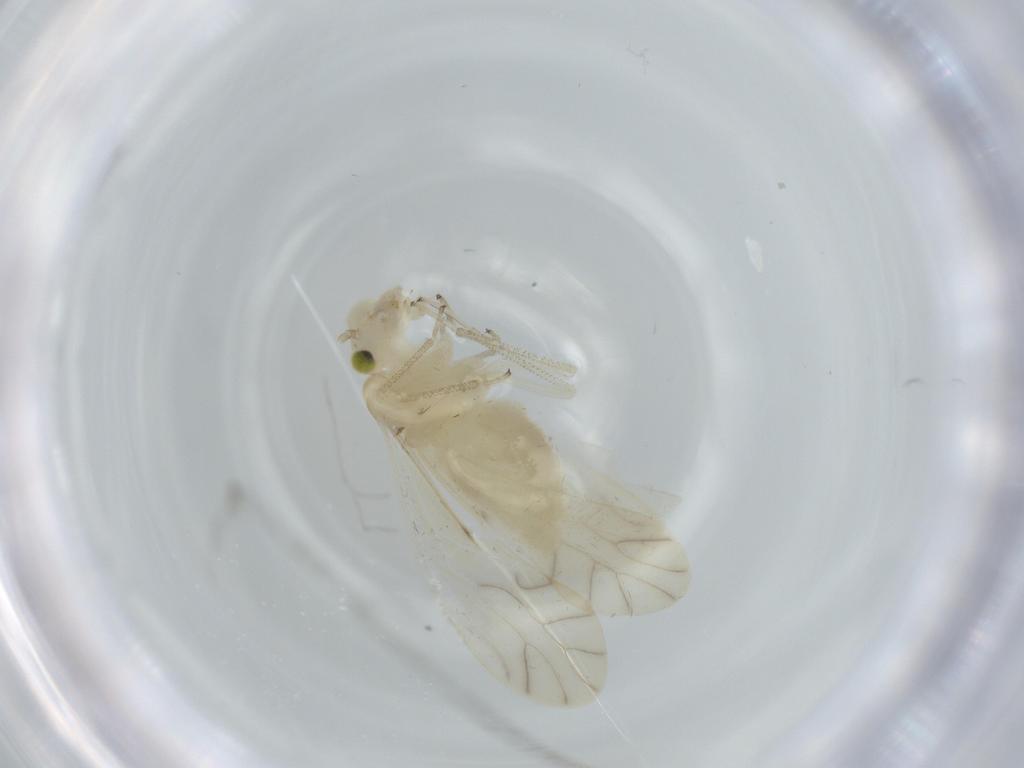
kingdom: Animalia
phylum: Arthropoda
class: Insecta
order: Psocodea
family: Caeciliusidae
